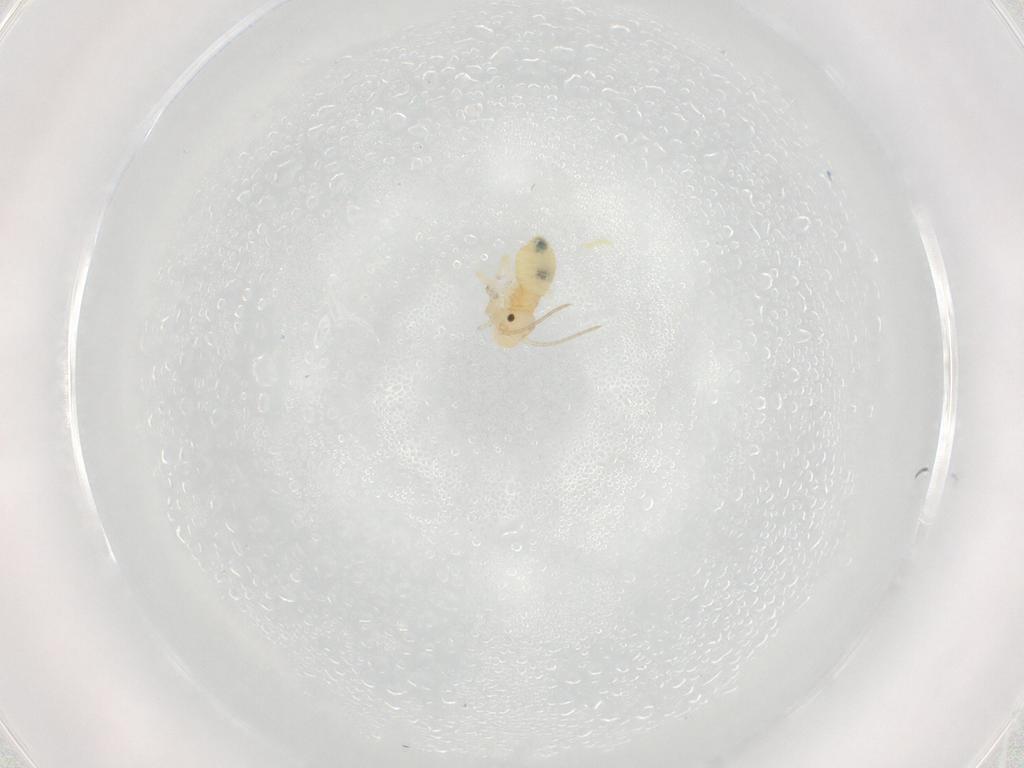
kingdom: Animalia
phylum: Arthropoda
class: Insecta
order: Psocodea
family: Caeciliusidae
